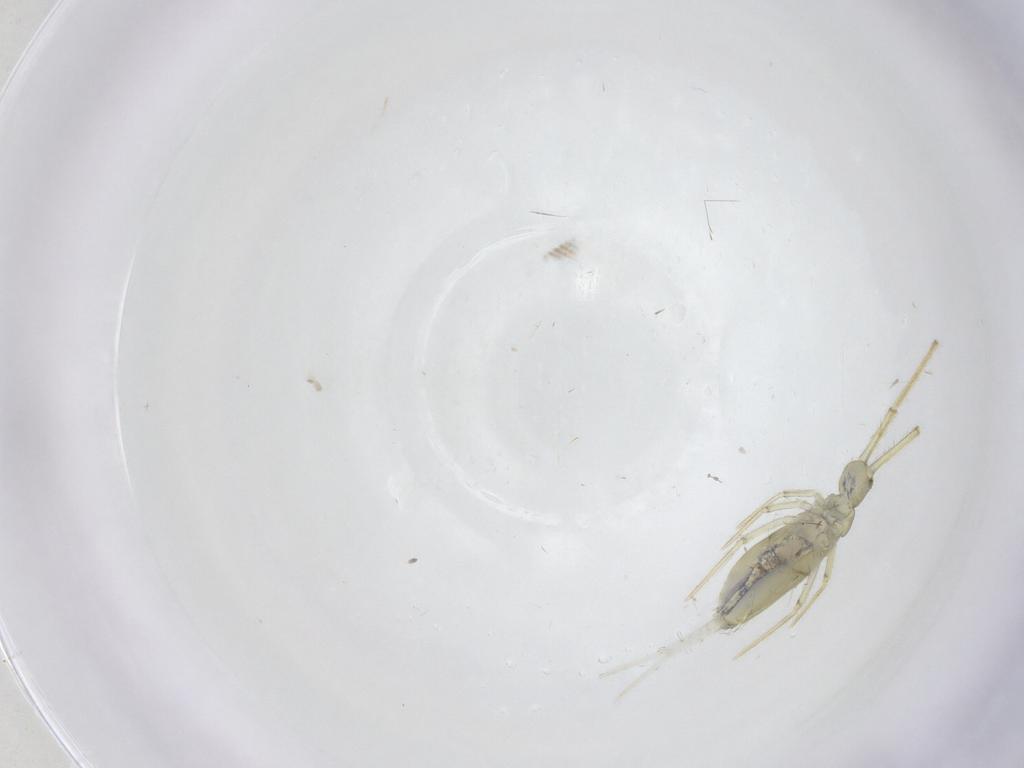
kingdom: Animalia
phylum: Arthropoda
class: Collembola
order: Entomobryomorpha
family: Paronellidae
